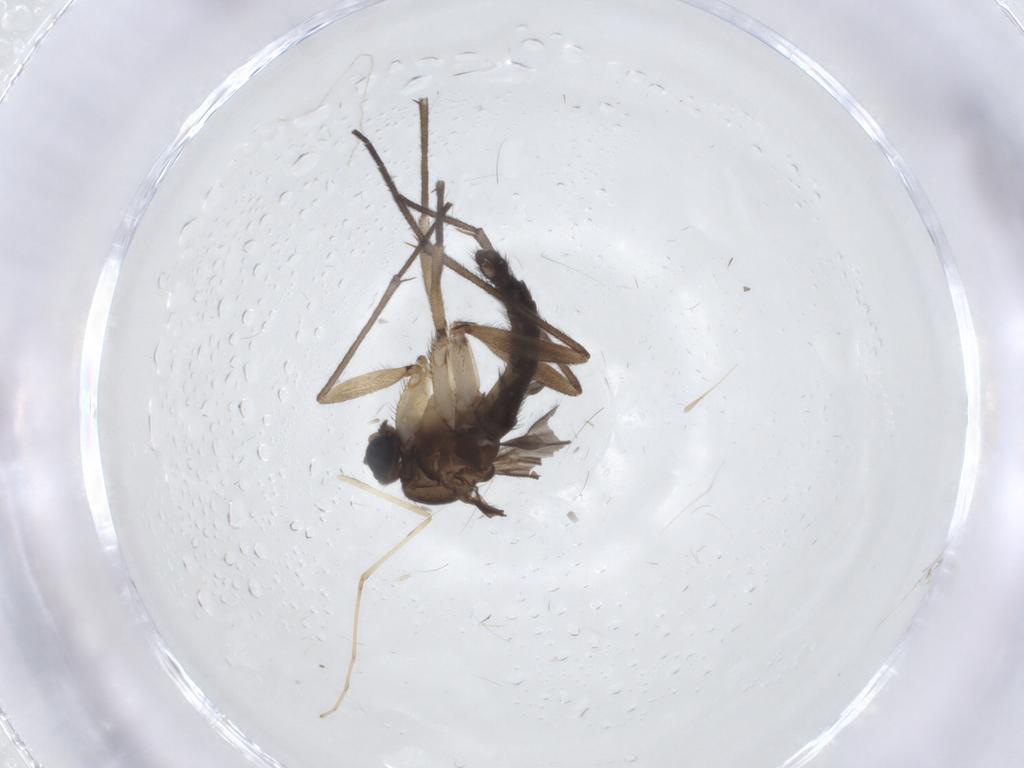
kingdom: Animalia
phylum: Arthropoda
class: Insecta
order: Diptera
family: Sciaridae
